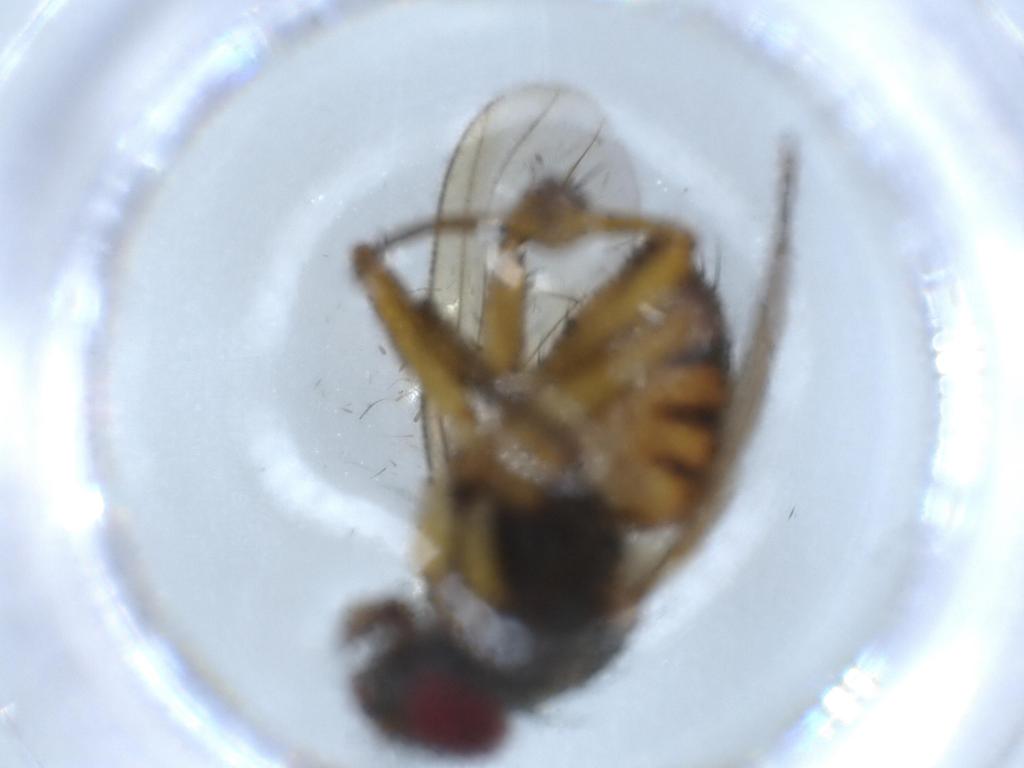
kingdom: Animalia
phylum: Arthropoda
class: Insecta
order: Diptera
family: Muscidae
